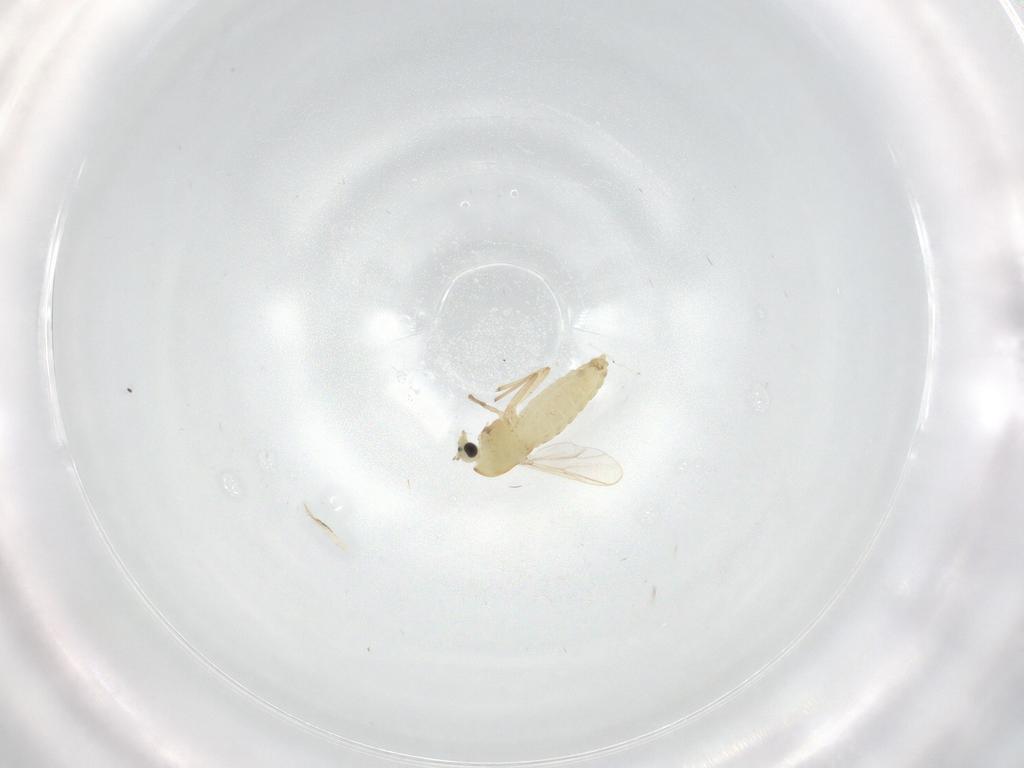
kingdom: Animalia
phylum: Arthropoda
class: Insecta
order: Diptera
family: Chironomidae
